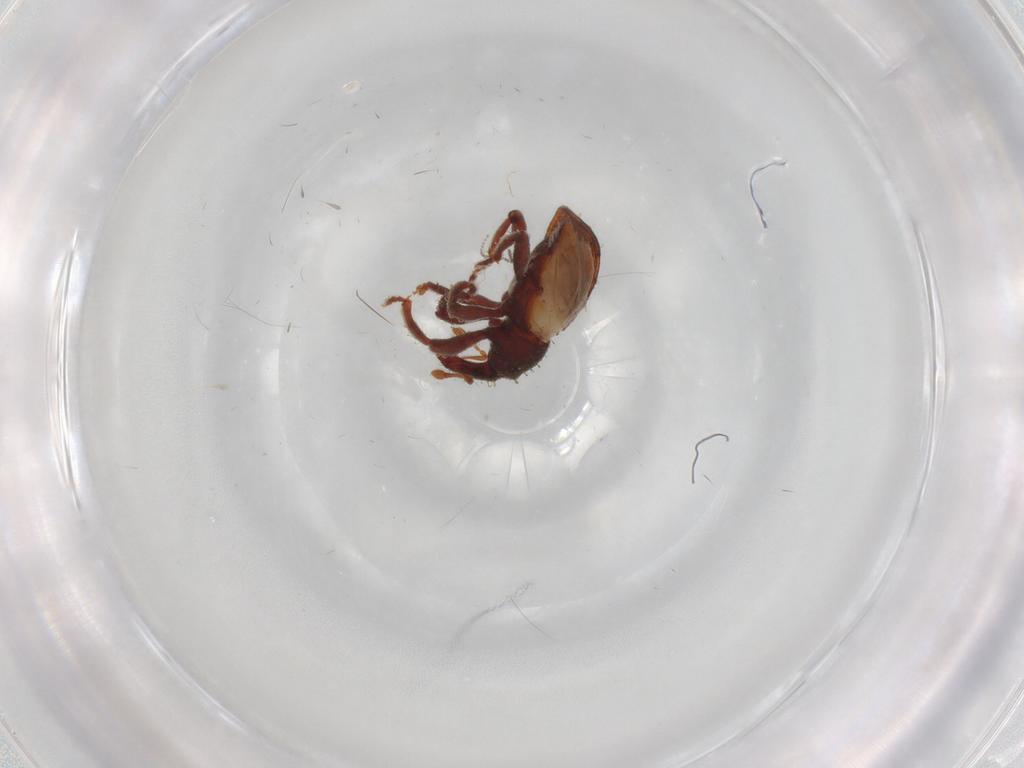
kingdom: Animalia
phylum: Arthropoda
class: Insecta
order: Coleoptera
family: Curculionidae
